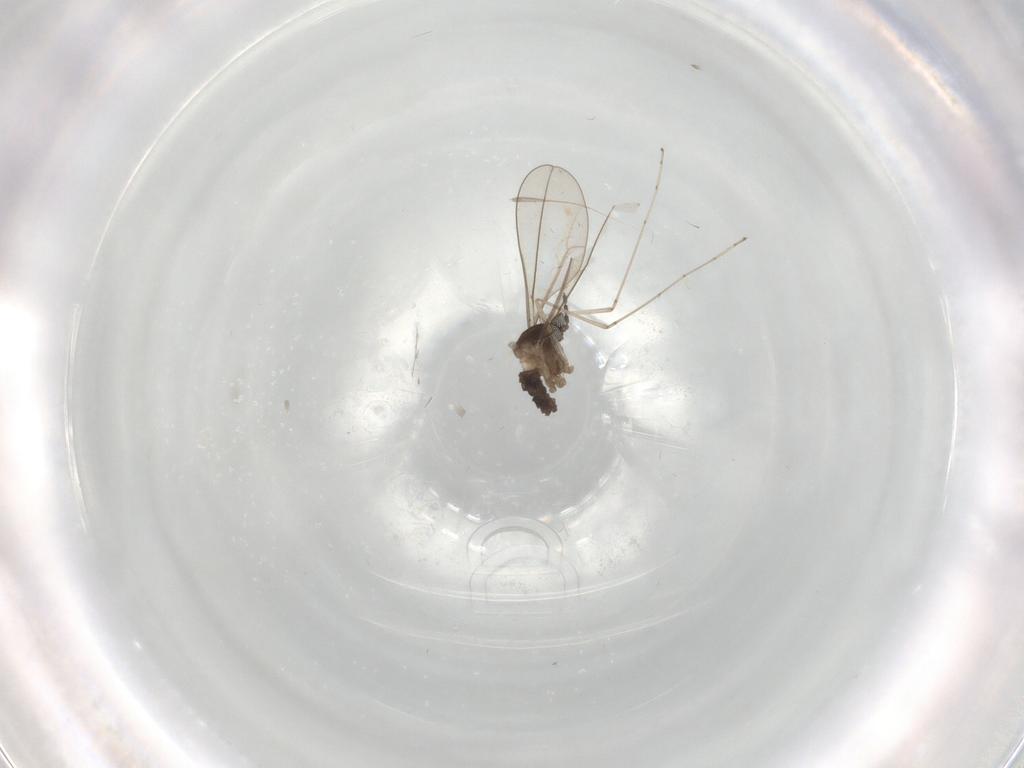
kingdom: Animalia
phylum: Arthropoda
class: Insecta
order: Diptera
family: Cecidomyiidae
